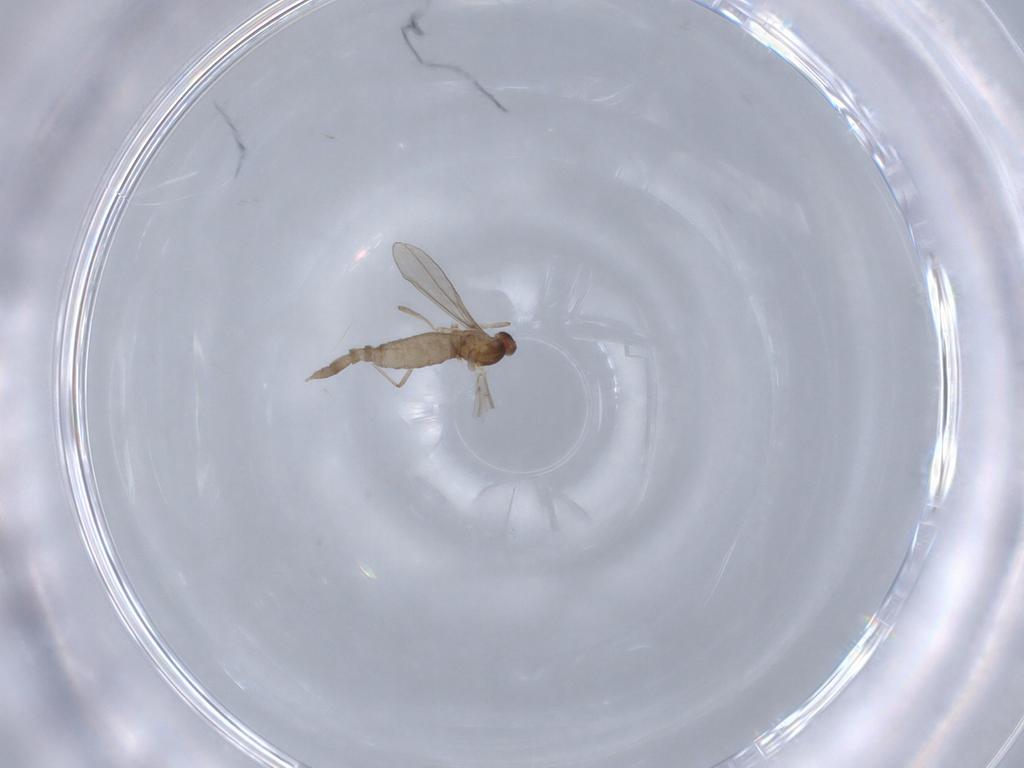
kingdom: Animalia
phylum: Arthropoda
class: Insecta
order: Diptera
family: Cecidomyiidae
